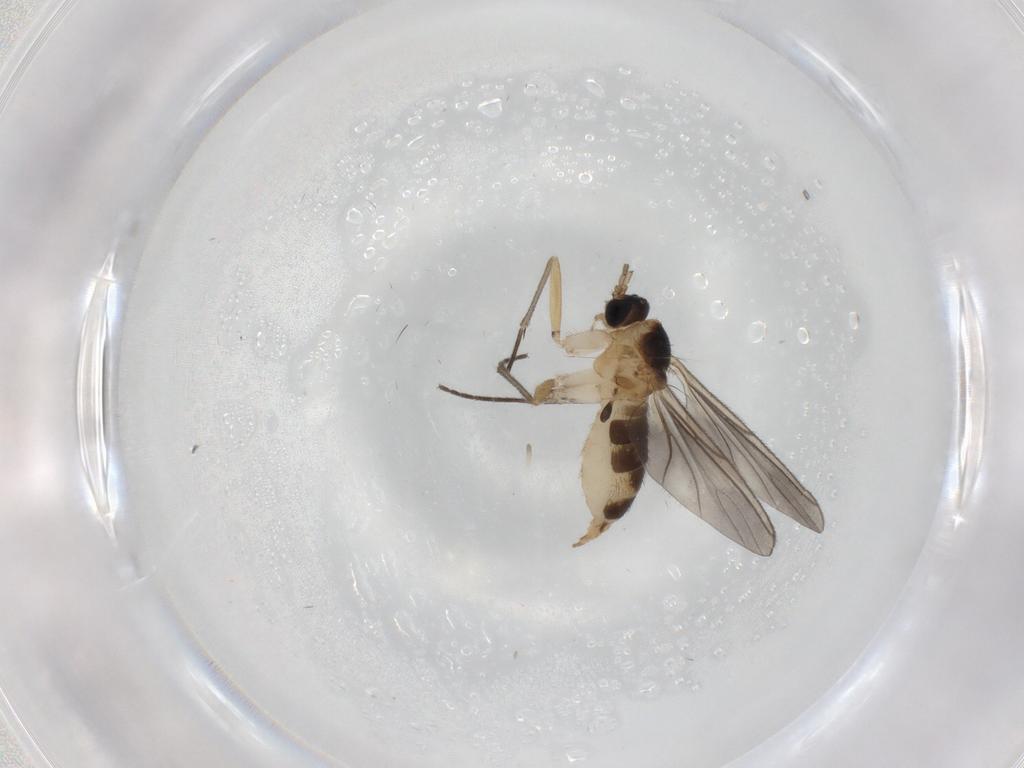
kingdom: Animalia
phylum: Arthropoda
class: Insecta
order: Diptera
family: Sciaridae
